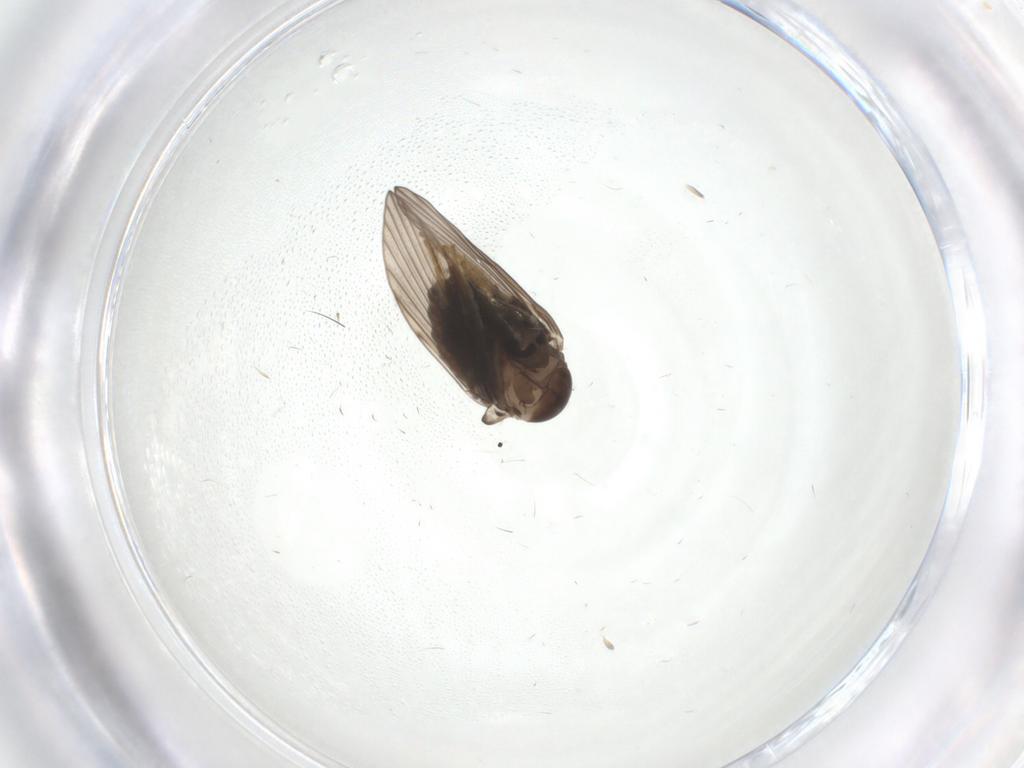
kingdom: Animalia
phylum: Arthropoda
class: Insecta
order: Diptera
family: Psychodidae
